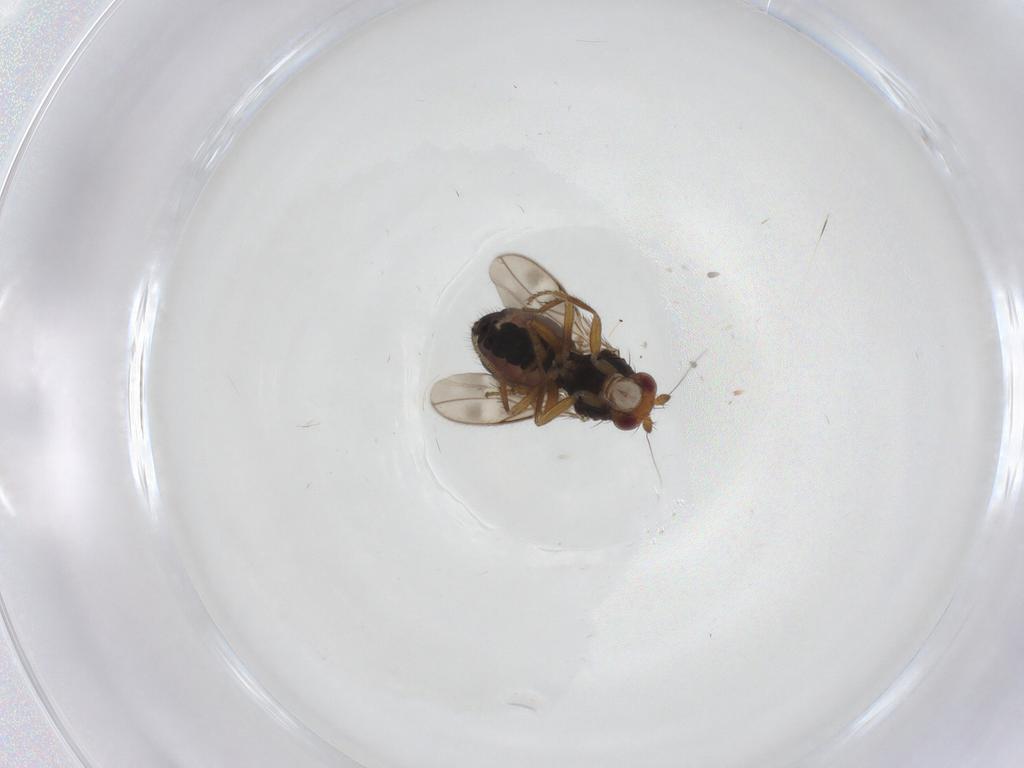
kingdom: Animalia
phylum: Arthropoda
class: Insecta
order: Diptera
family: Sphaeroceridae
